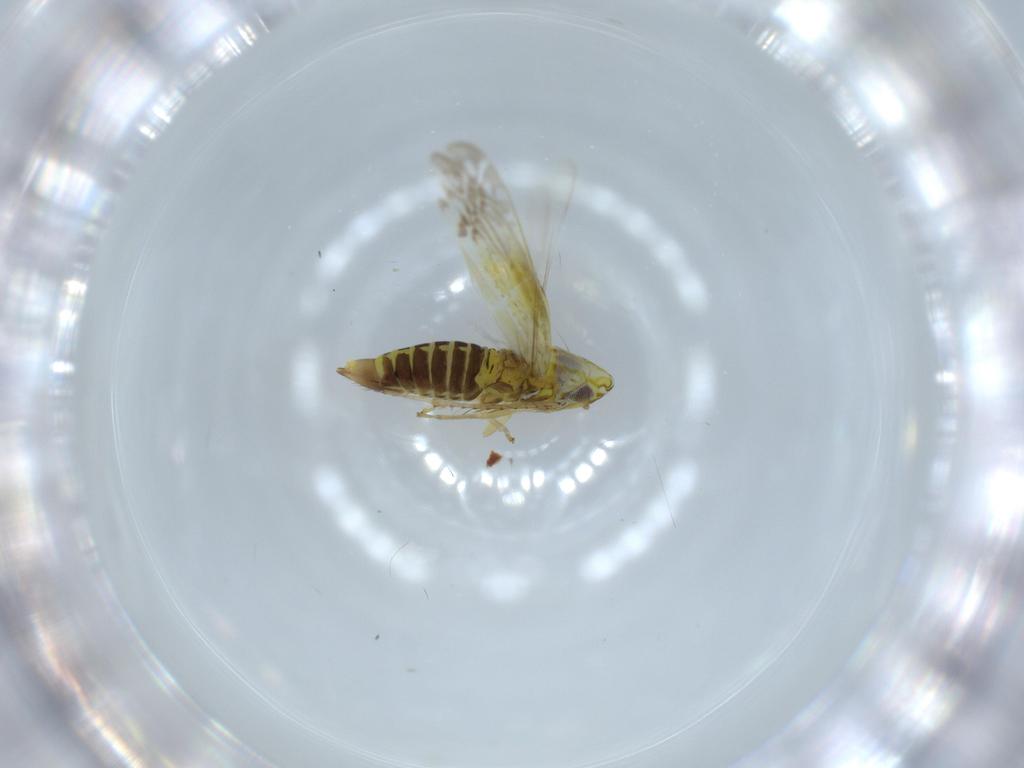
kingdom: Animalia
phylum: Arthropoda
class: Insecta
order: Hemiptera
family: Cicadellidae
